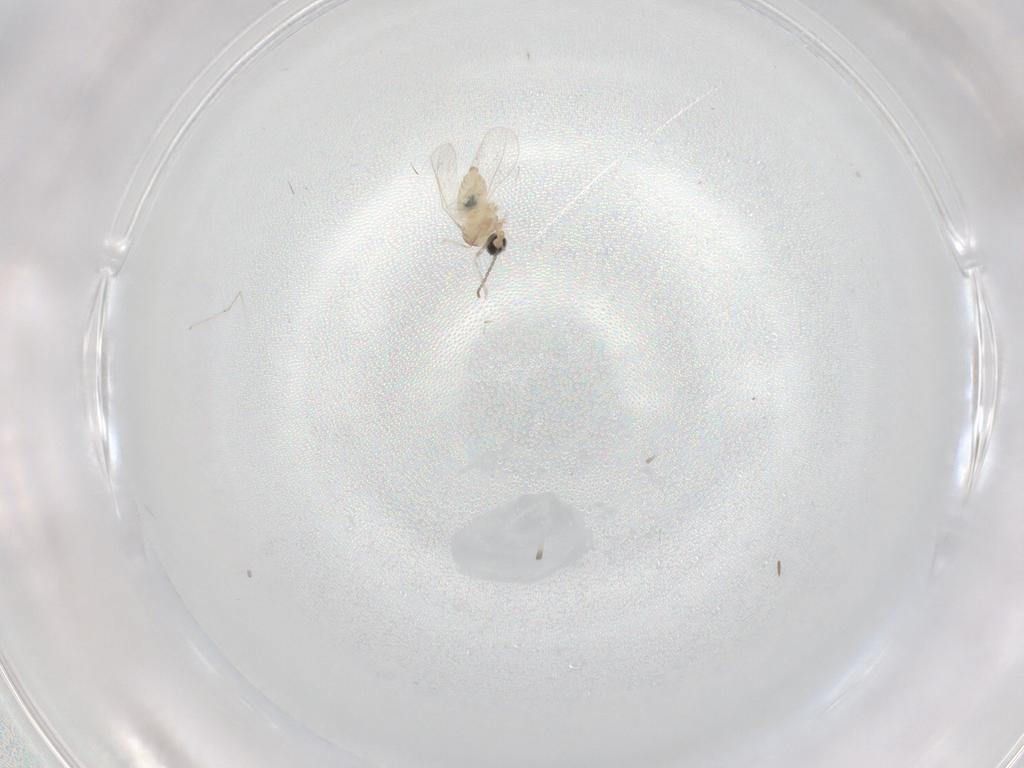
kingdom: Animalia
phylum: Arthropoda
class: Insecta
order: Diptera
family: Cecidomyiidae
